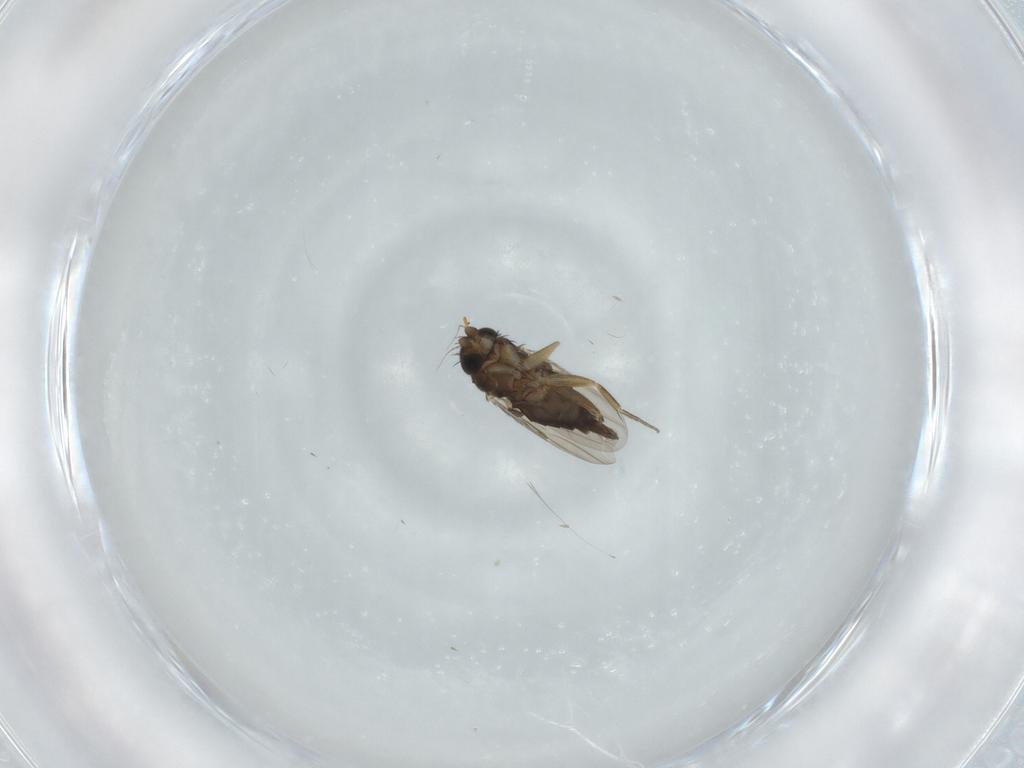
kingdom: Animalia
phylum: Arthropoda
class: Insecta
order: Diptera
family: Phoridae
